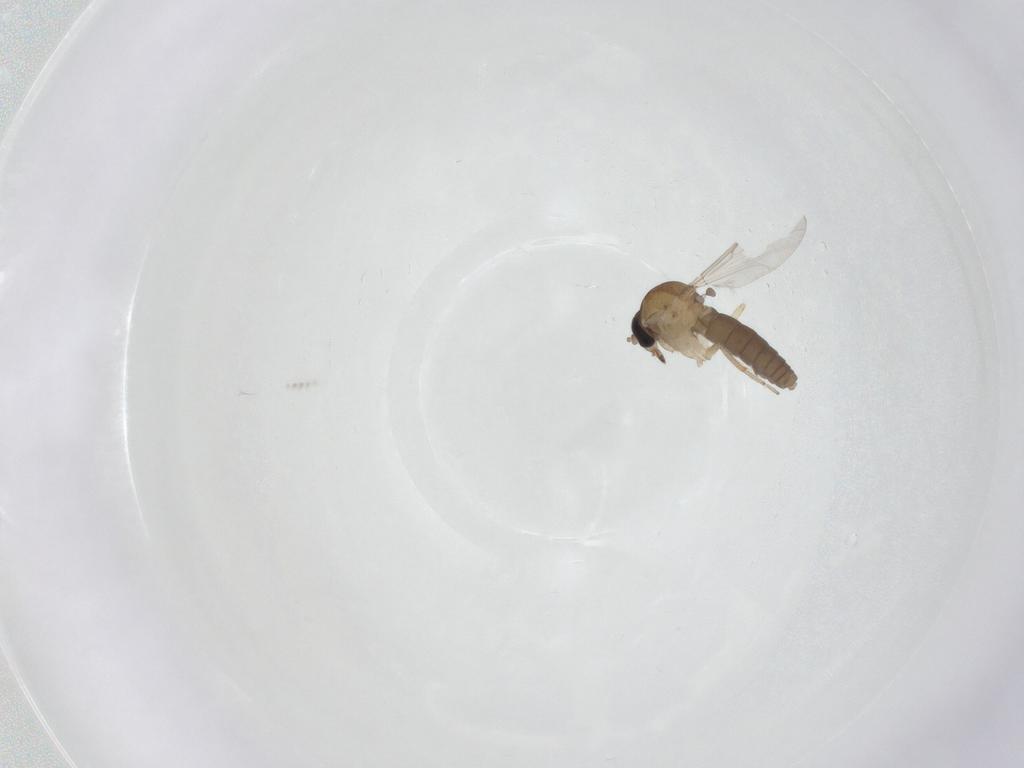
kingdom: Animalia
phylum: Arthropoda
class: Insecta
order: Diptera
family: Ceratopogonidae
